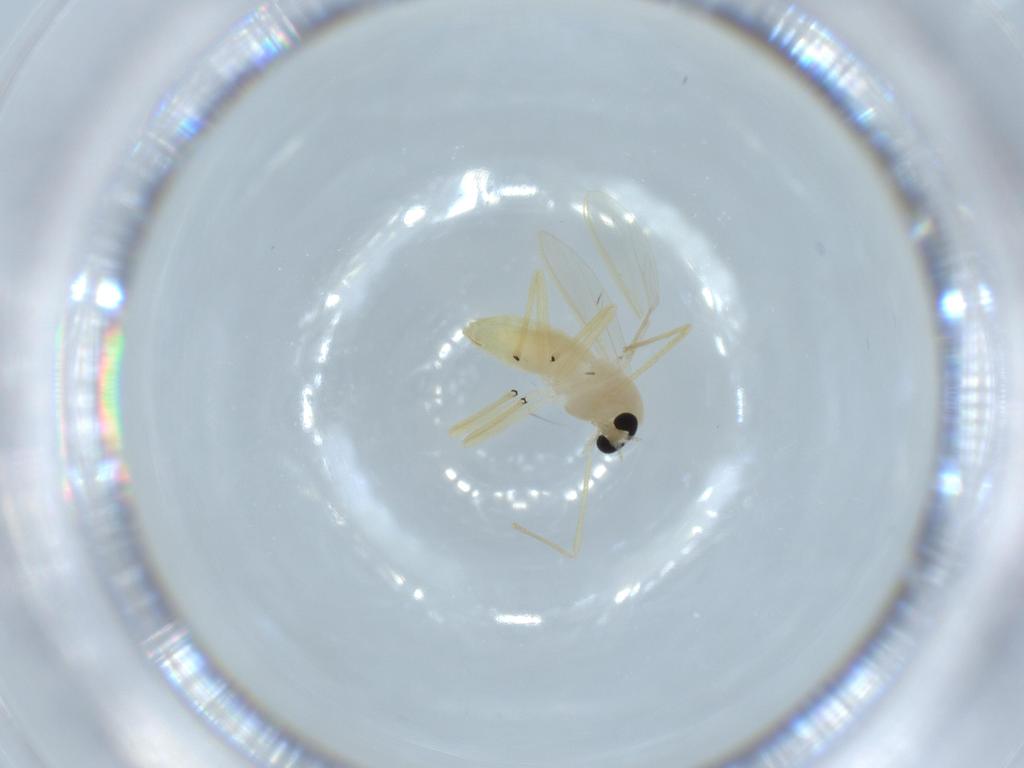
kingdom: Animalia
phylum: Arthropoda
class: Insecta
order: Diptera
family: Chironomidae
